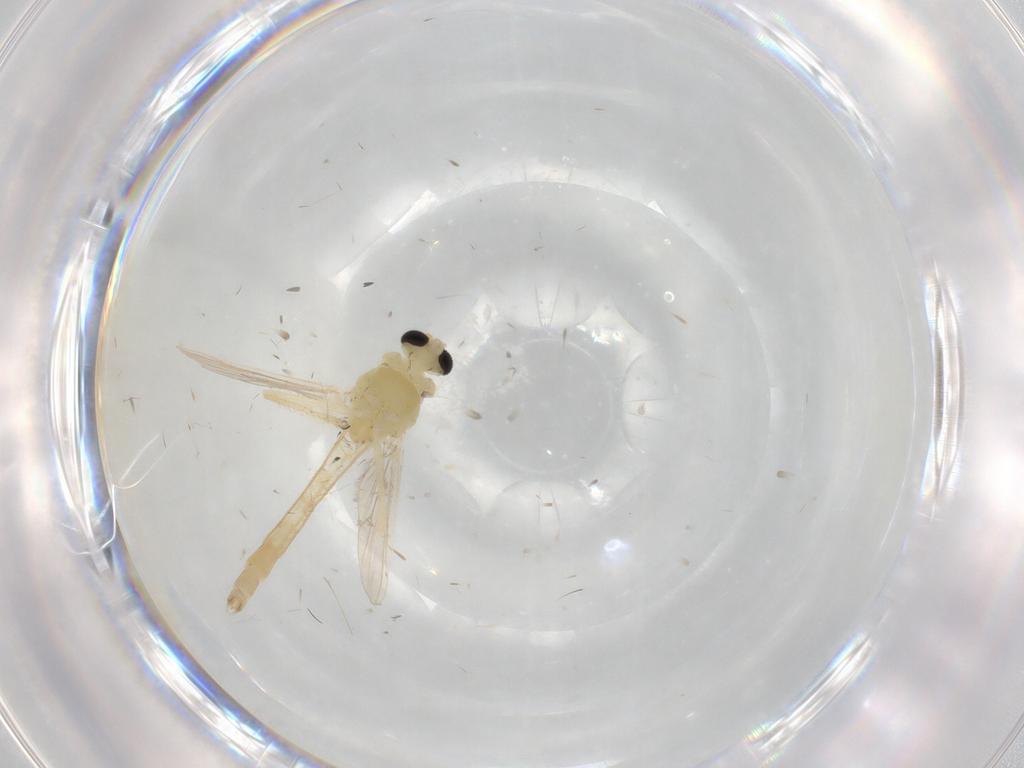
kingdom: Animalia
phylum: Arthropoda
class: Insecta
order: Diptera
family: Chironomidae
